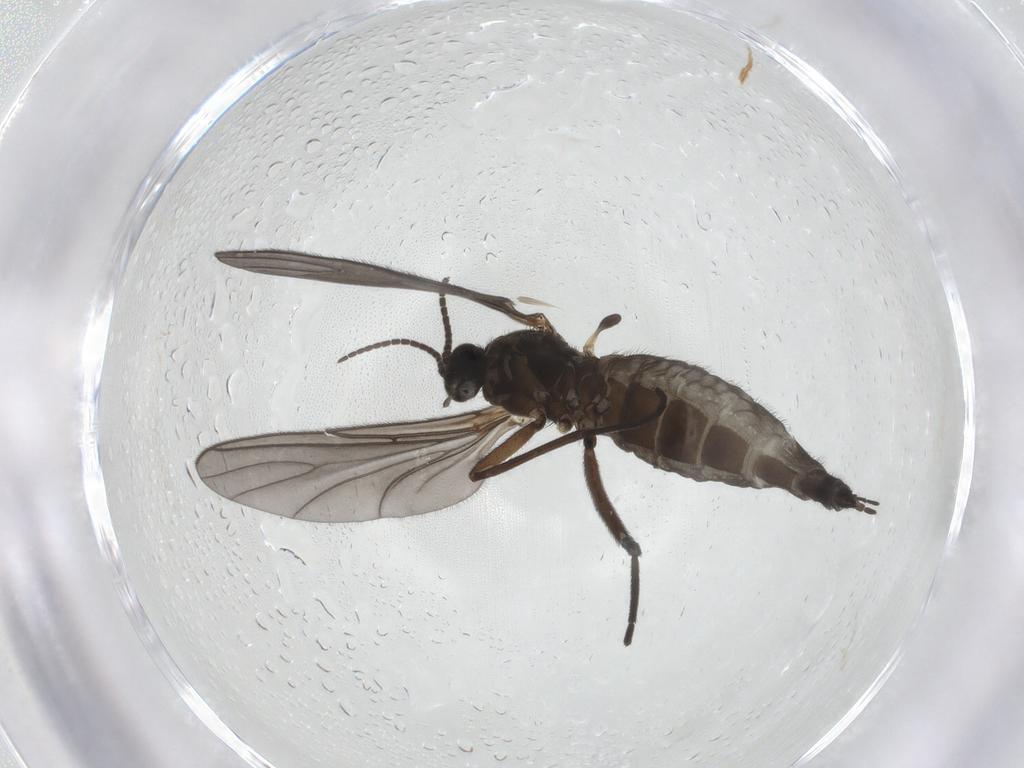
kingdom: Animalia
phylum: Arthropoda
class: Insecta
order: Diptera
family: Sciaridae
